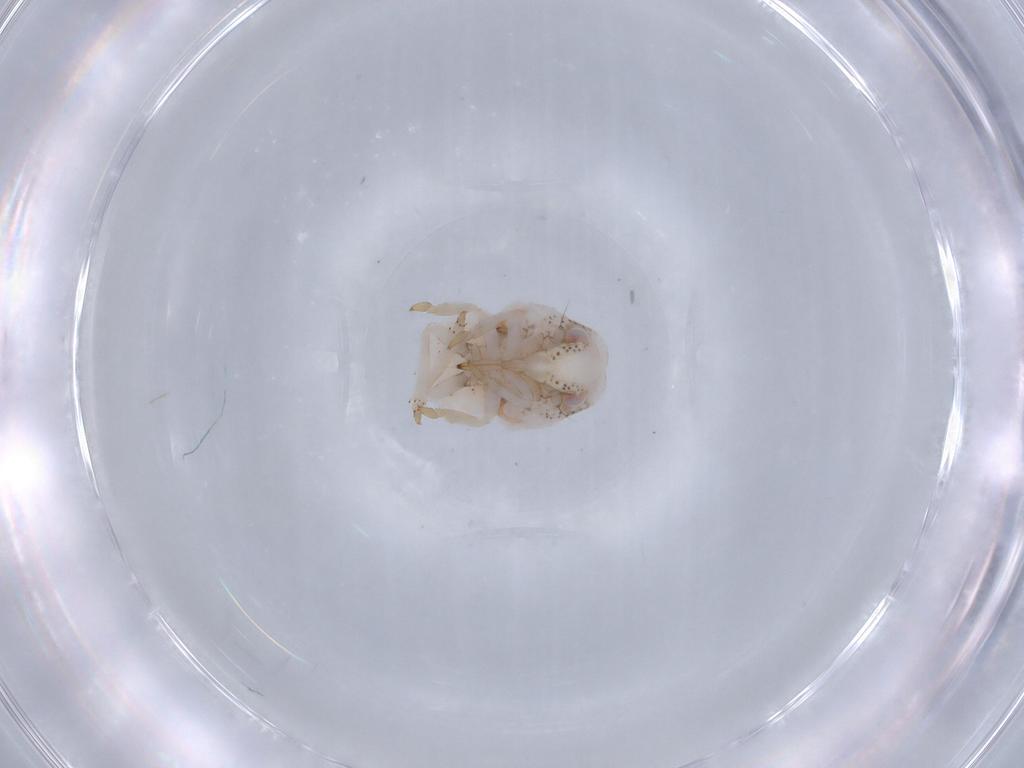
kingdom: Animalia
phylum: Arthropoda
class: Insecta
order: Hemiptera
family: Acanaloniidae
